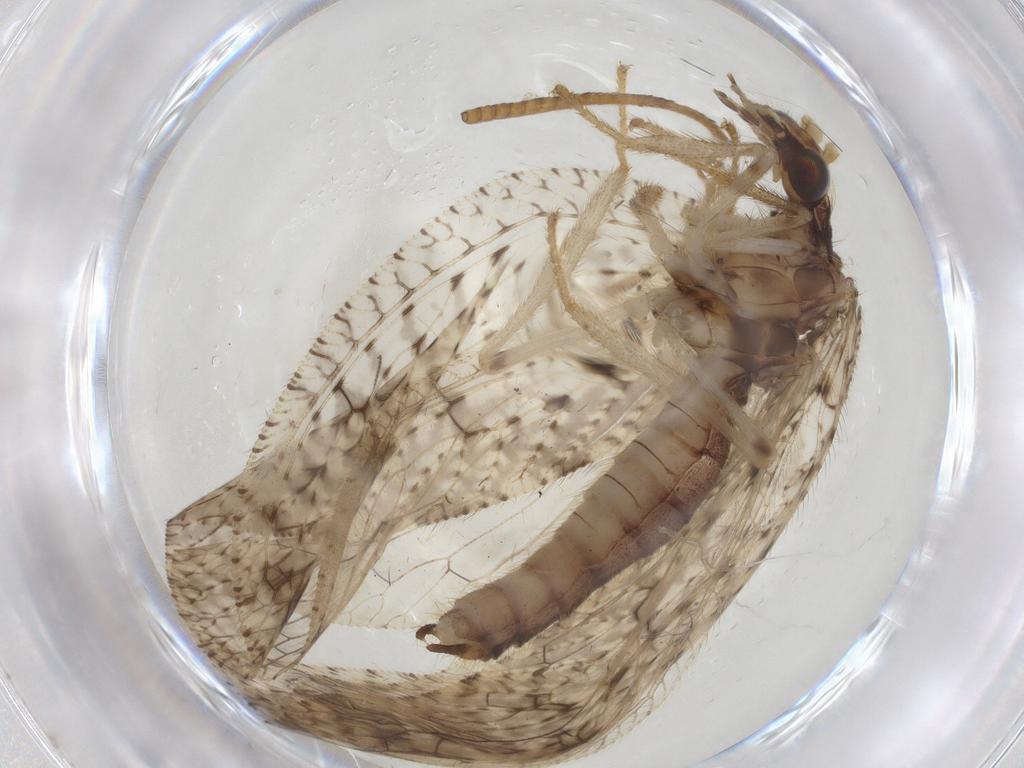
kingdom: Animalia
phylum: Arthropoda
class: Insecta
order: Neuroptera
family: Hemerobiidae
